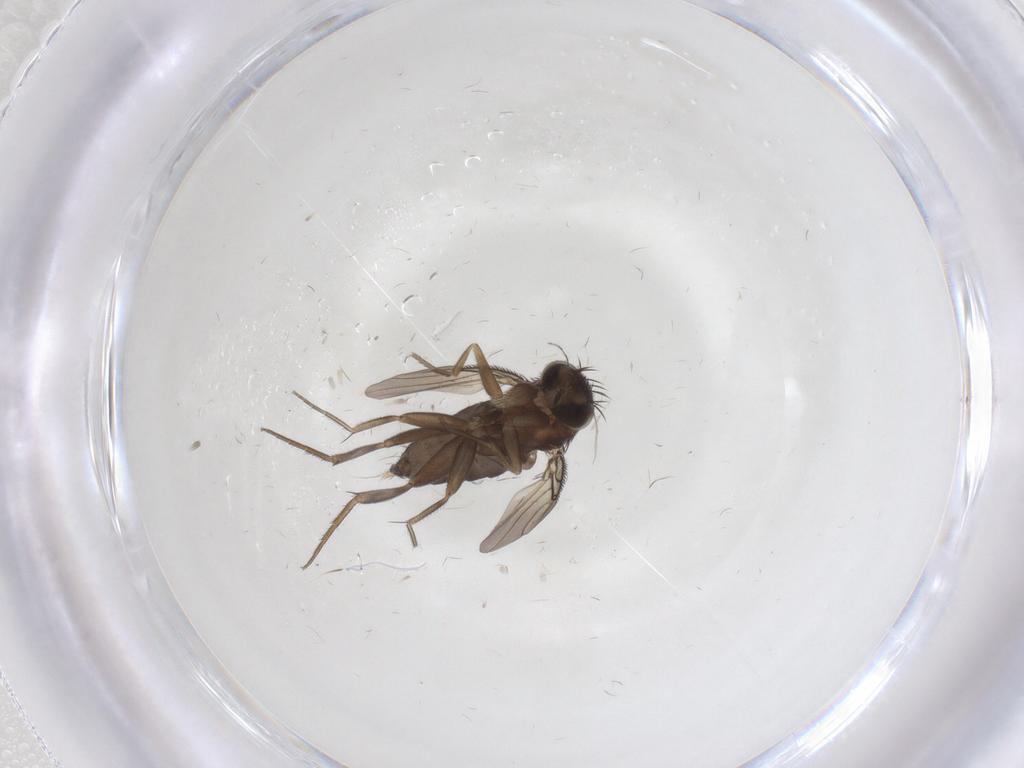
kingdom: Animalia
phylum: Arthropoda
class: Insecta
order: Diptera
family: Phoridae
